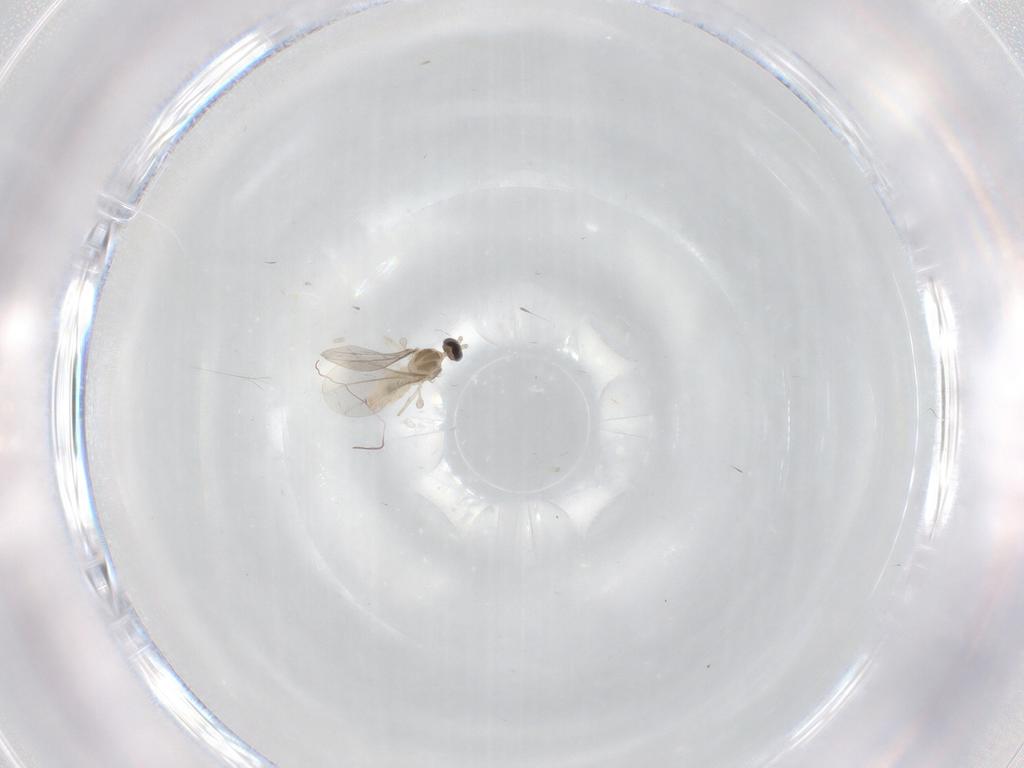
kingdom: Animalia
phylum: Arthropoda
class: Insecta
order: Diptera
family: Cecidomyiidae
